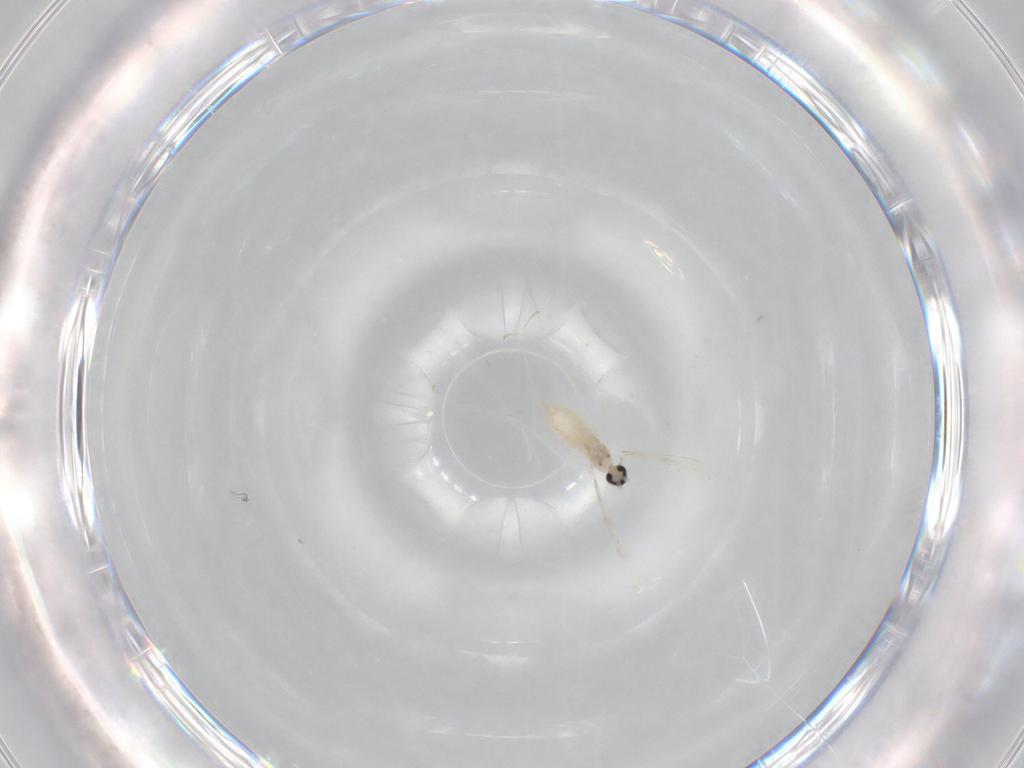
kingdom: Animalia
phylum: Arthropoda
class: Insecta
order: Diptera
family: Cecidomyiidae
